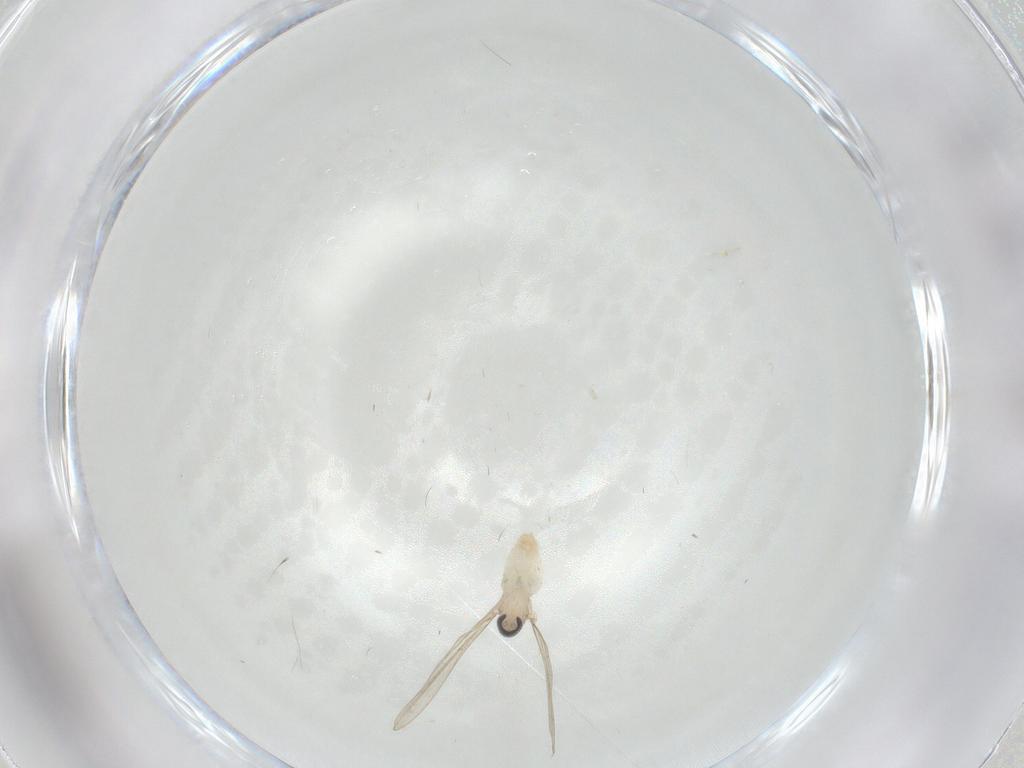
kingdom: Animalia
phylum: Arthropoda
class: Insecta
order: Diptera
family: Cecidomyiidae
